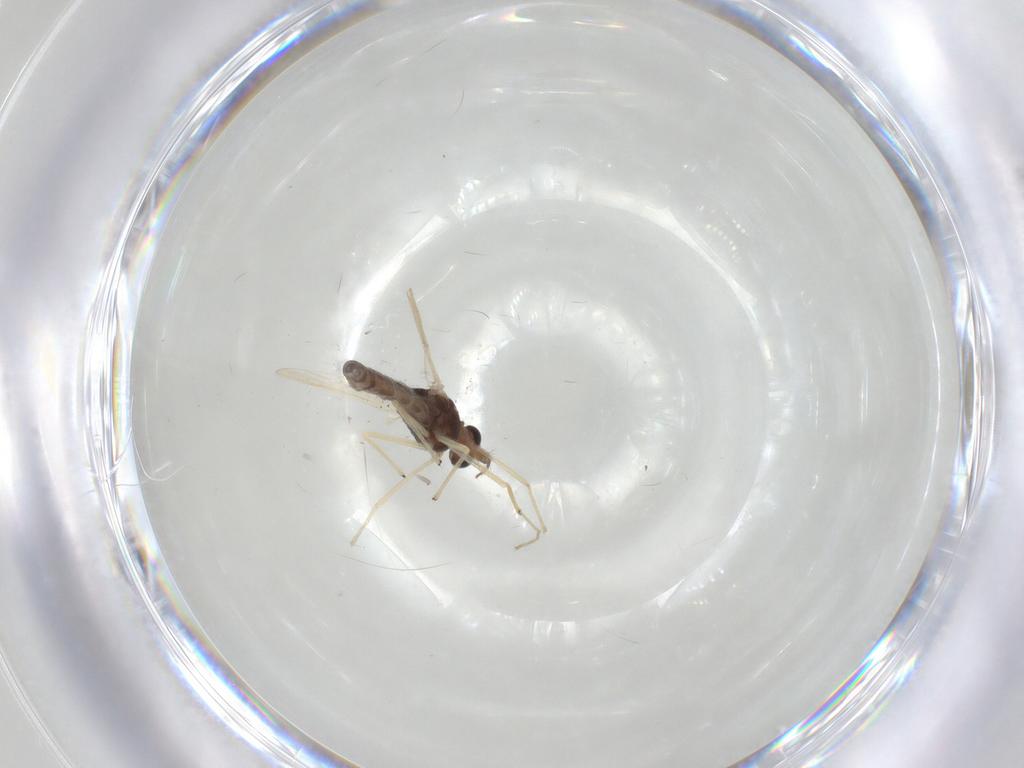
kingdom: Animalia
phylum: Arthropoda
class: Insecta
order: Diptera
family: Chironomidae
